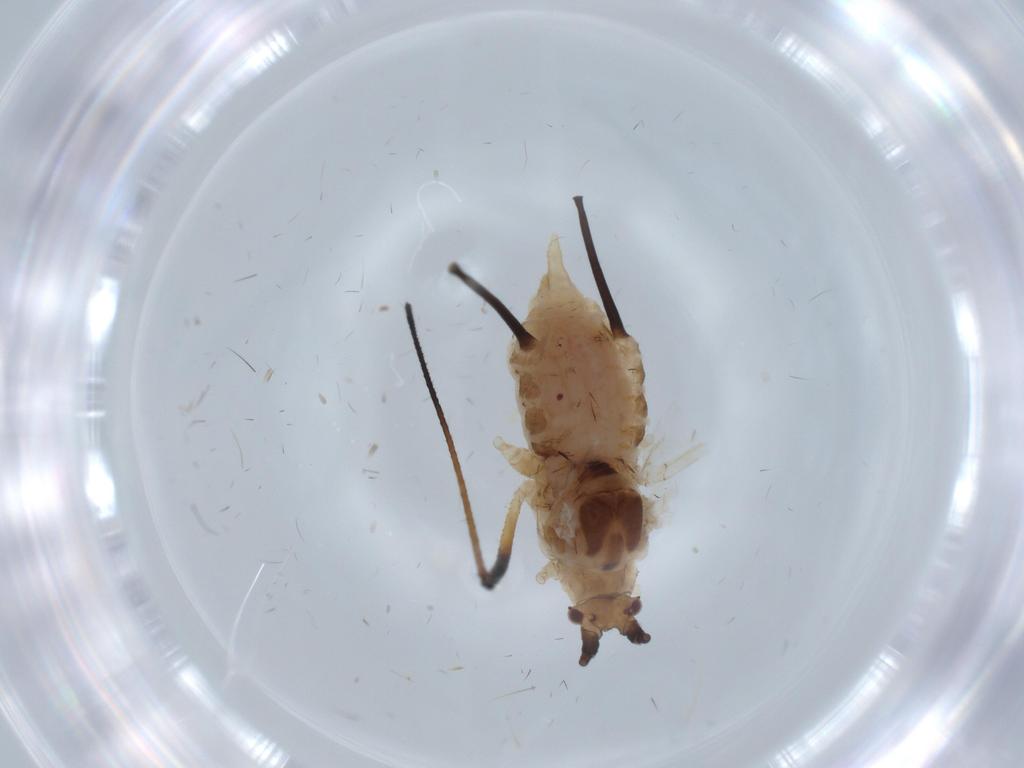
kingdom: Animalia
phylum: Arthropoda
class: Insecta
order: Hemiptera
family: Aphididae
